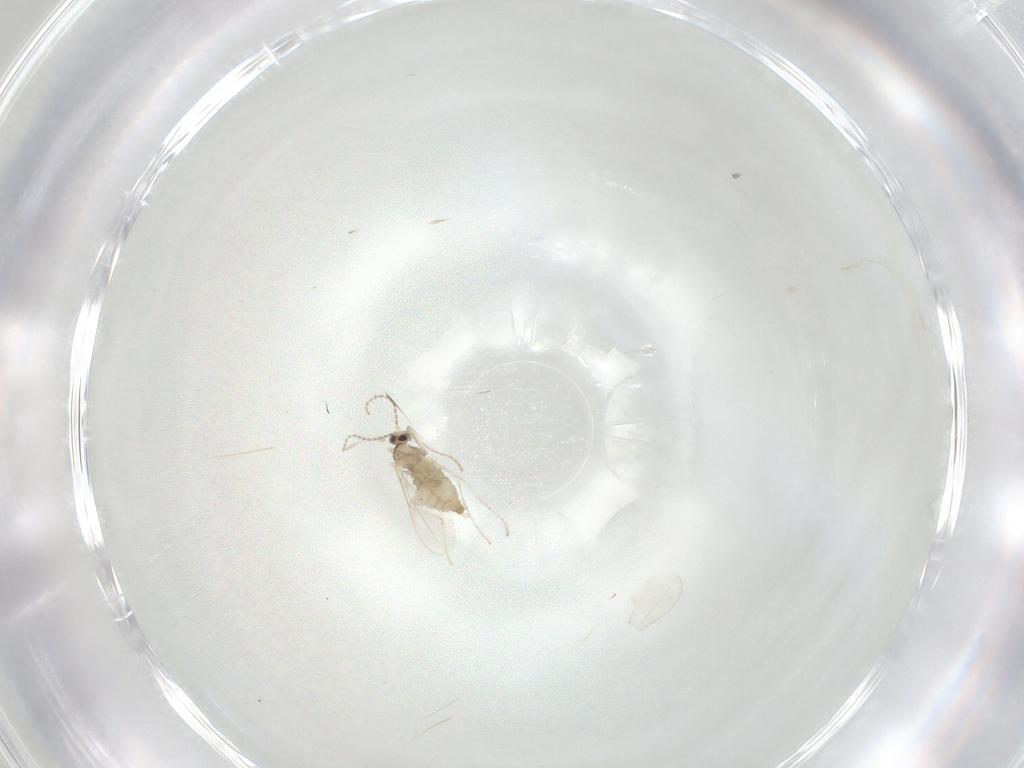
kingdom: Animalia
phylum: Arthropoda
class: Insecta
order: Diptera
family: Cecidomyiidae
